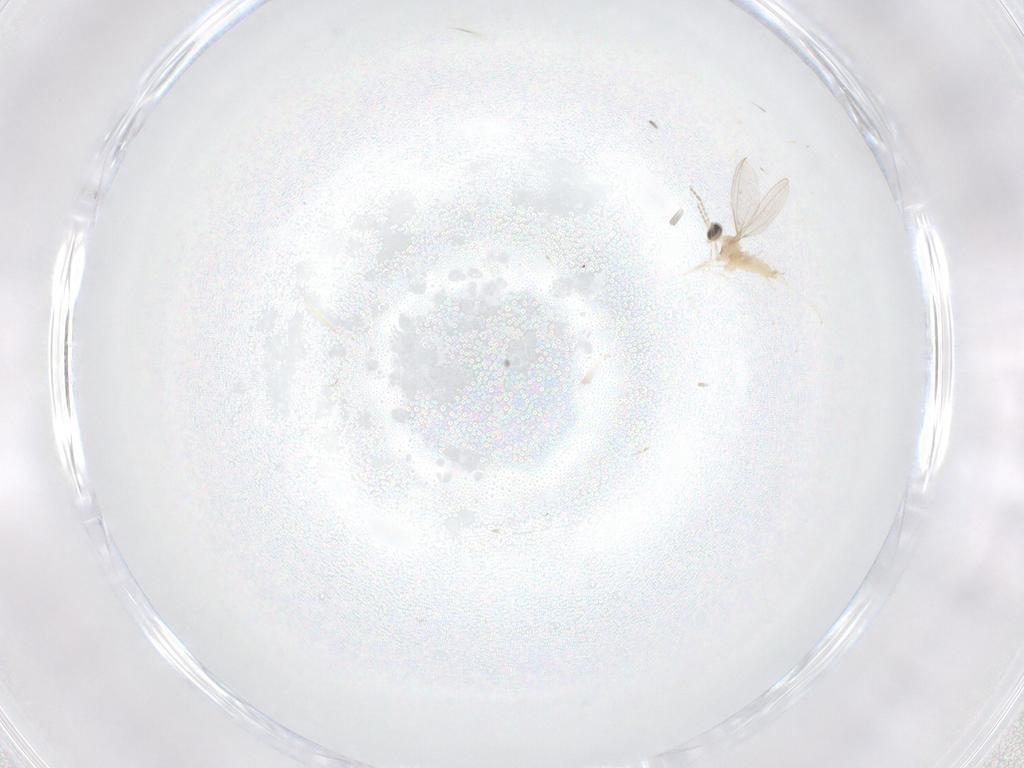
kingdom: Animalia
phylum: Arthropoda
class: Insecta
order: Diptera
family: Cecidomyiidae
